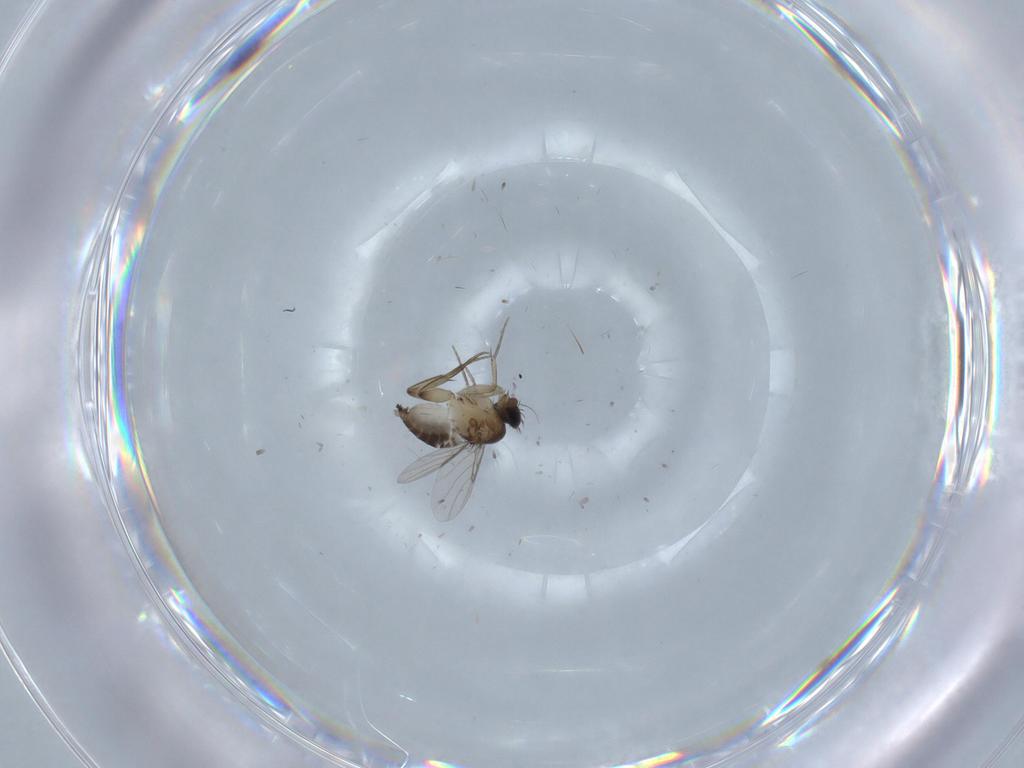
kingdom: Animalia
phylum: Arthropoda
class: Insecta
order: Diptera
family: Phoridae
